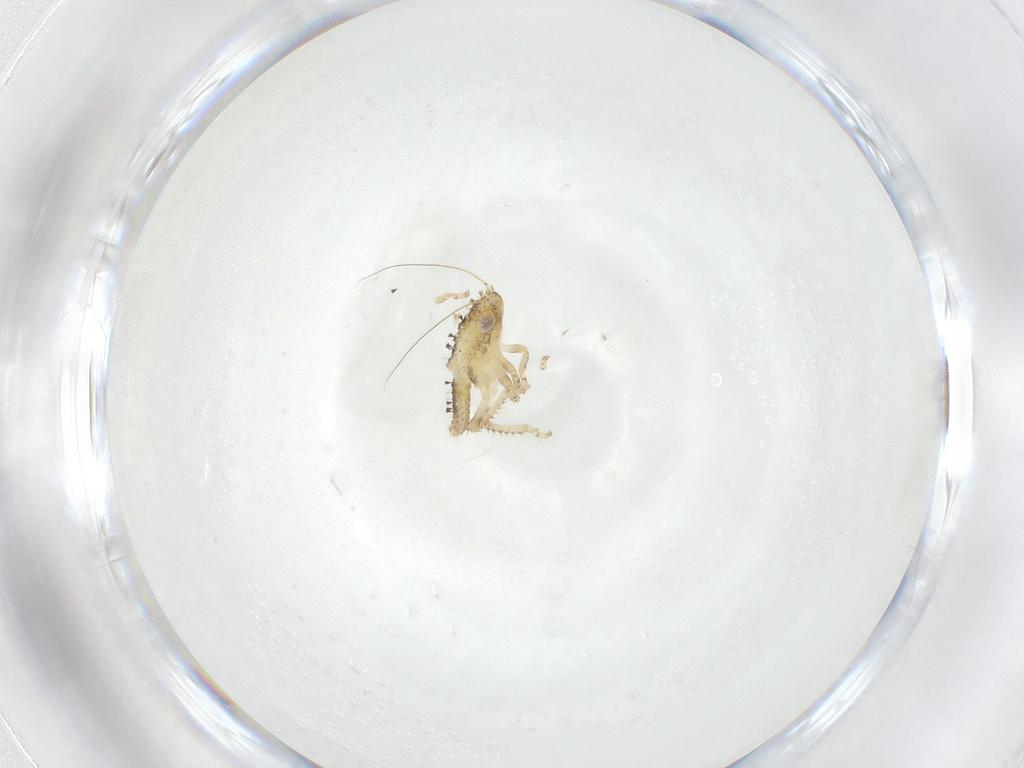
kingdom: Animalia
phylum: Arthropoda
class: Insecta
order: Hemiptera
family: Cicadellidae
